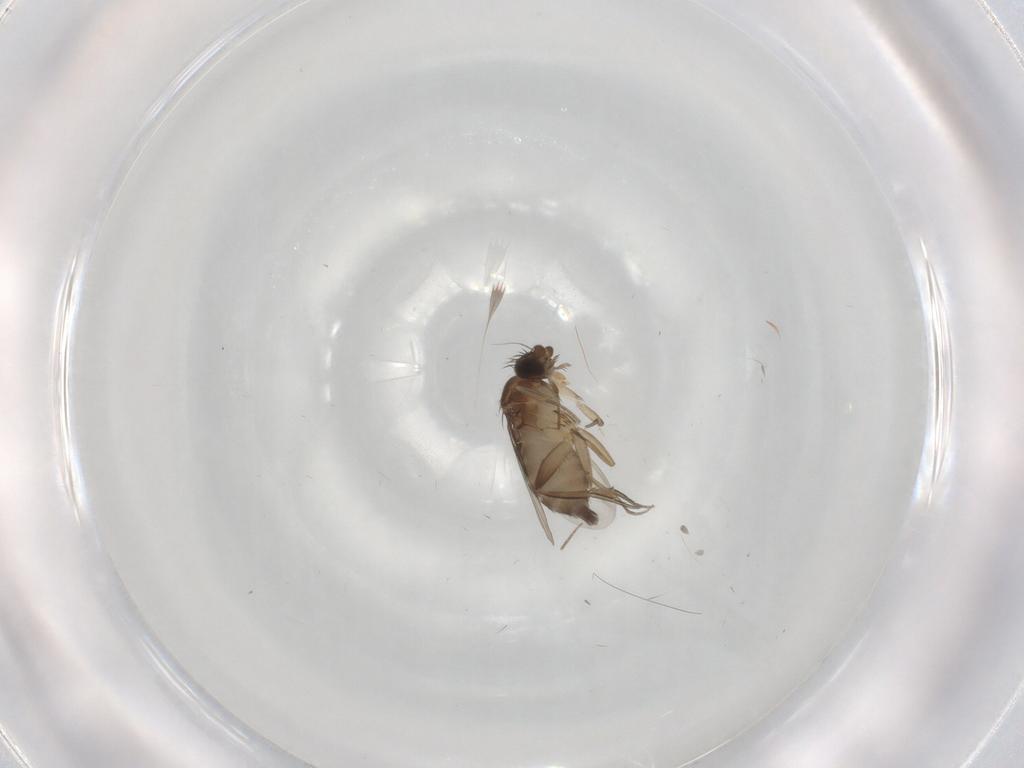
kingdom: Animalia
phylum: Arthropoda
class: Insecta
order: Diptera
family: Phoridae
